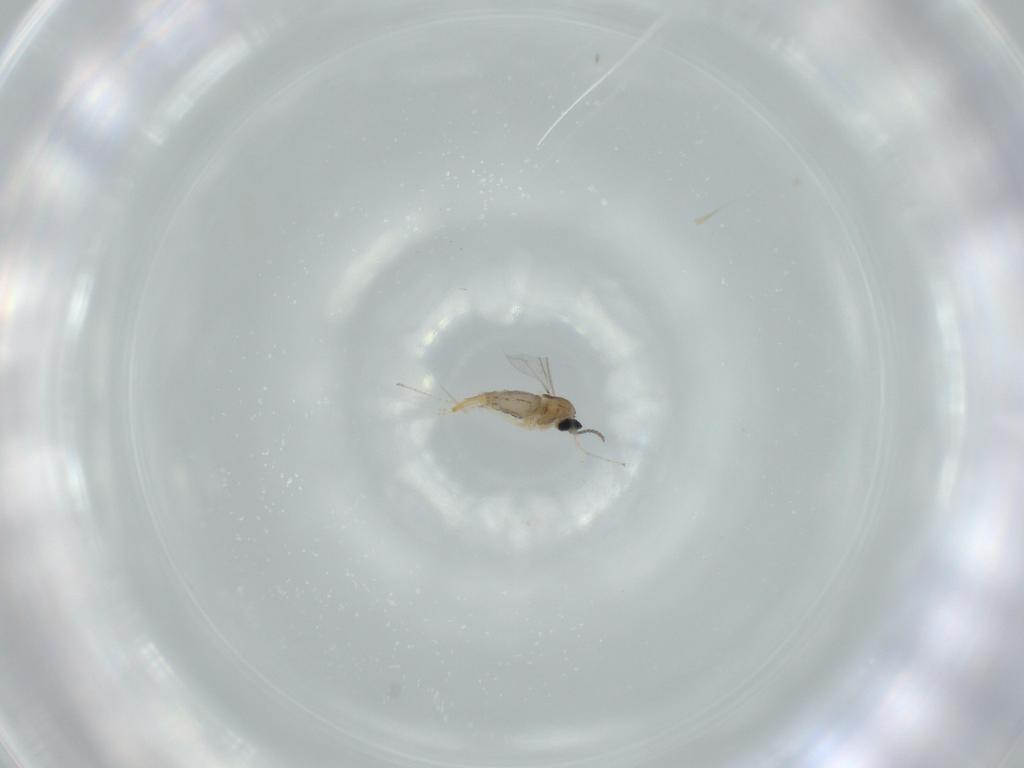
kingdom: Animalia
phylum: Arthropoda
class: Insecta
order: Diptera
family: Cecidomyiidae
